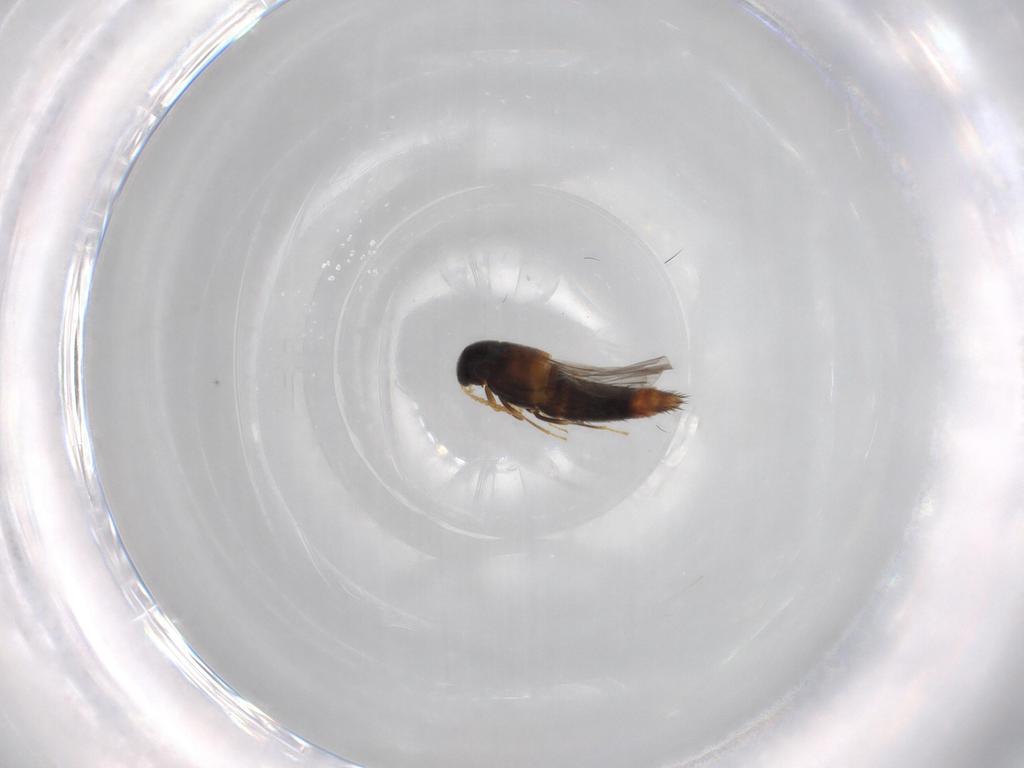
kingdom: Animalia
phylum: Arthropoda
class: Insecta
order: Coleoptera
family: Staphylinidae
